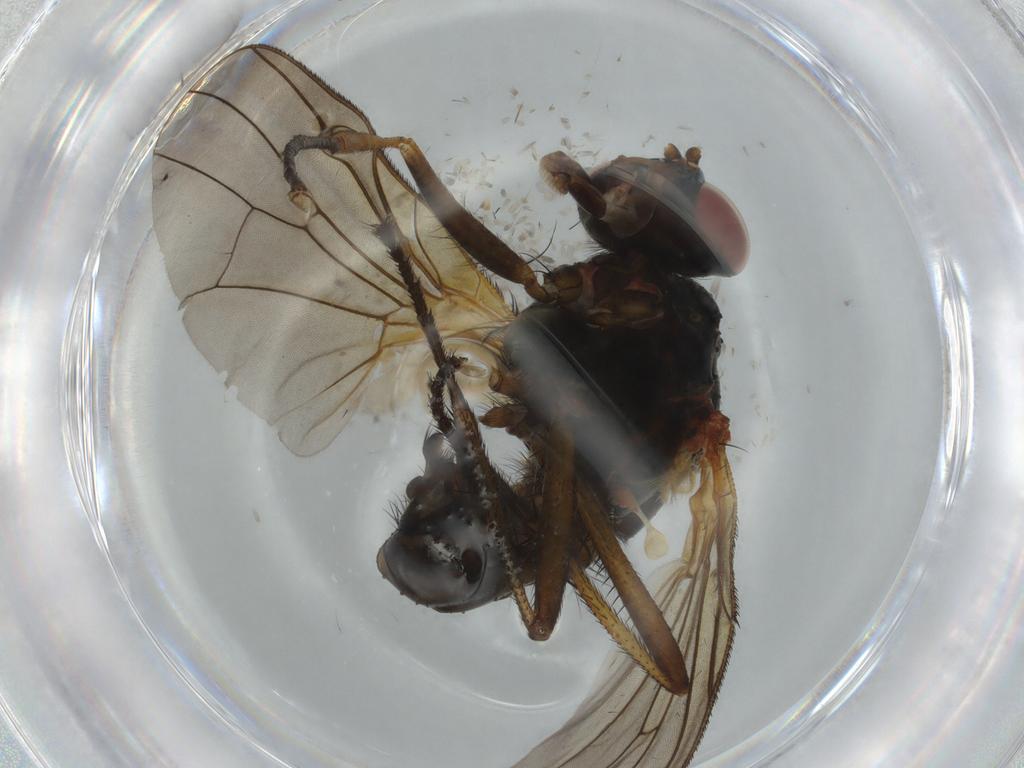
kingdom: Animalia
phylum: Arthropoda
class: Insecta
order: Diptera
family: Anthomyiidae
